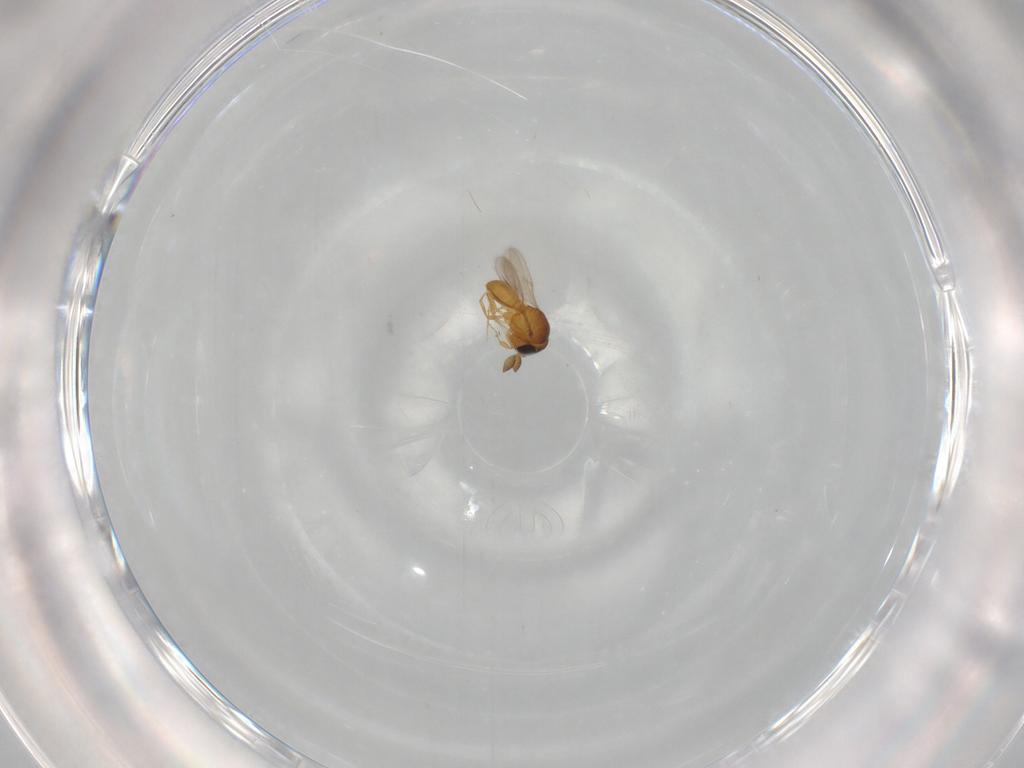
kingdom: Animalia
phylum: Arthropoda
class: Insecta
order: Hymenoptera
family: Scelionidae
